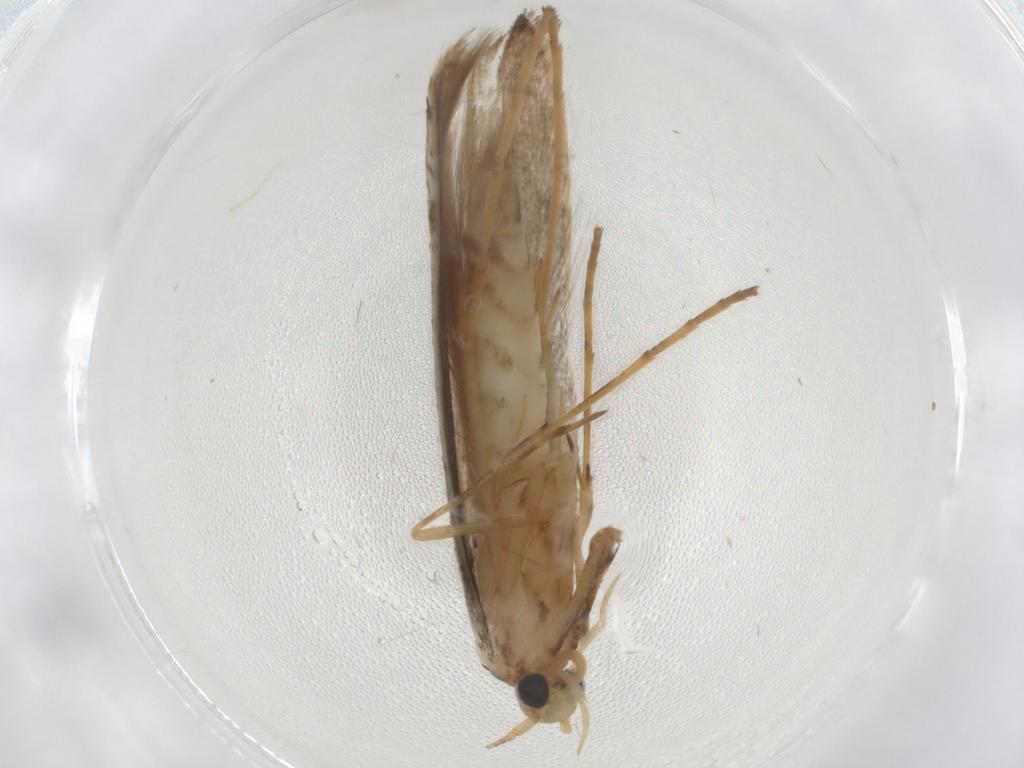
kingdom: Animalia
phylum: Arthropoda
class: Insecta
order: Lepidoptera
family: Gracillariidae
